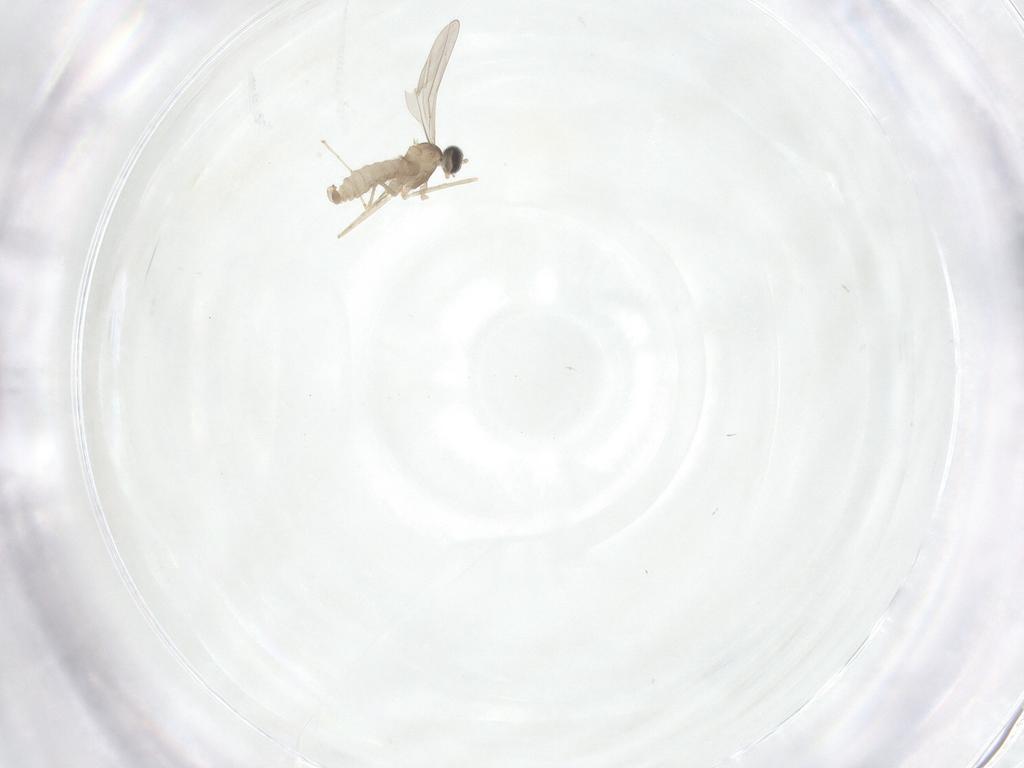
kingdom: Animalia
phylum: Arthropoda
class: Insecta
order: Diptera
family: Cecidomyiidae
